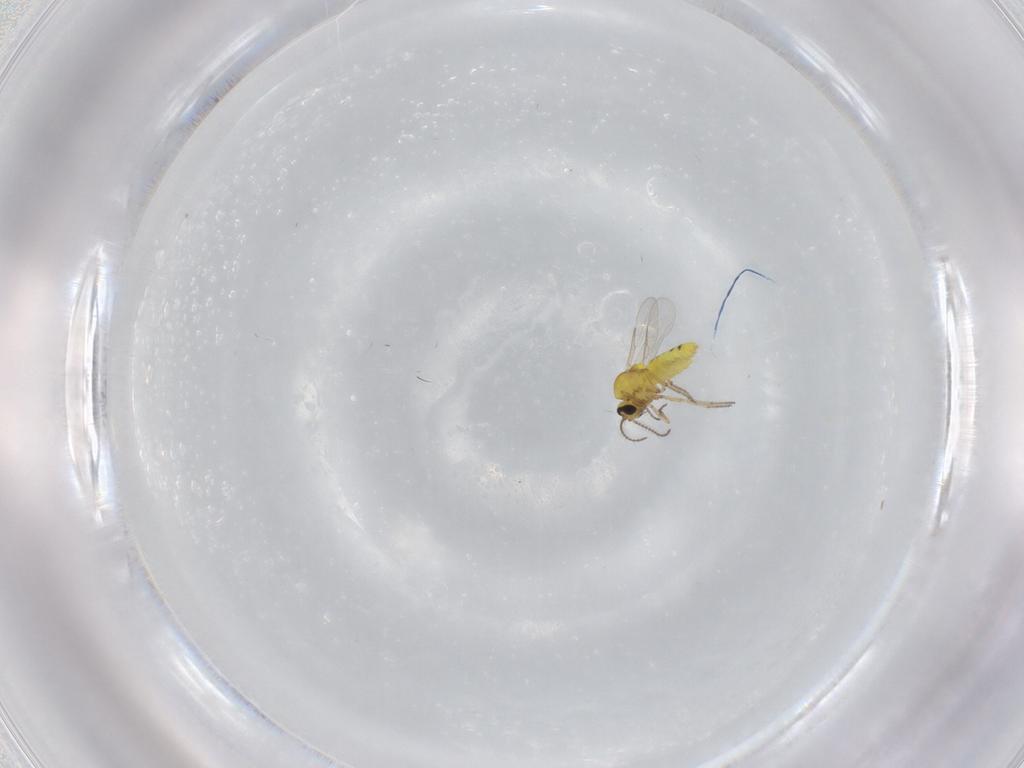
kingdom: Animalia
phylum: Arthropoda
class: Insecta
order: Diptera
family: Ceratopogonidae
